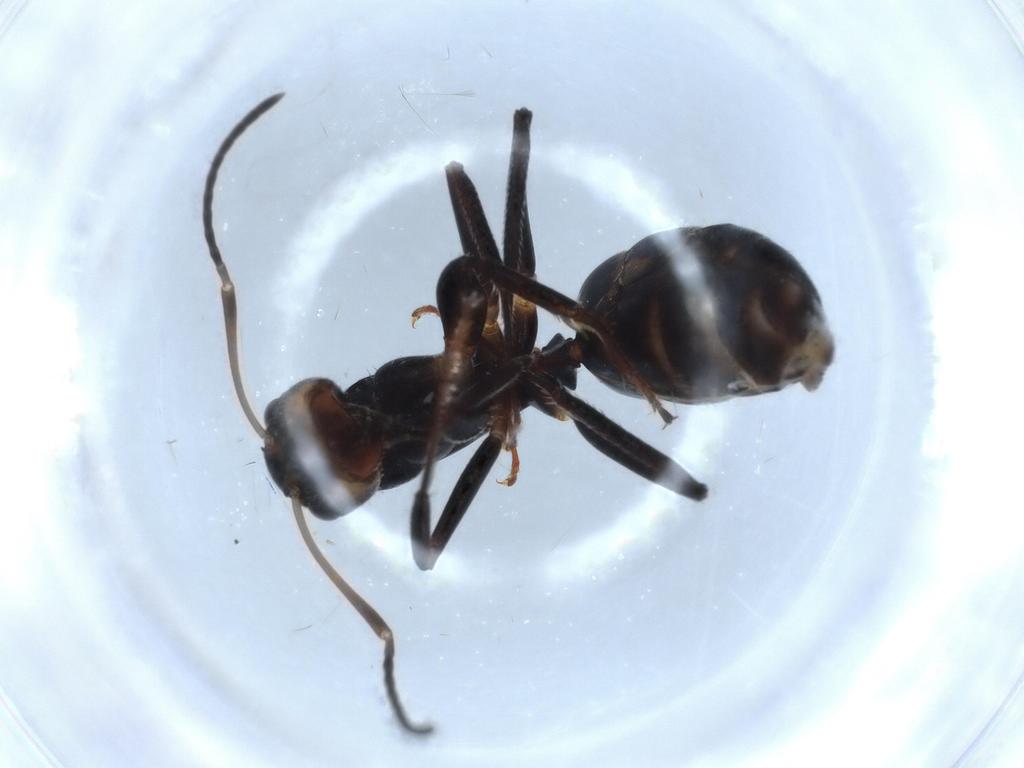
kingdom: Animalia
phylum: Arthropoda
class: Insecta
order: Hymenoptera
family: Formicidae
